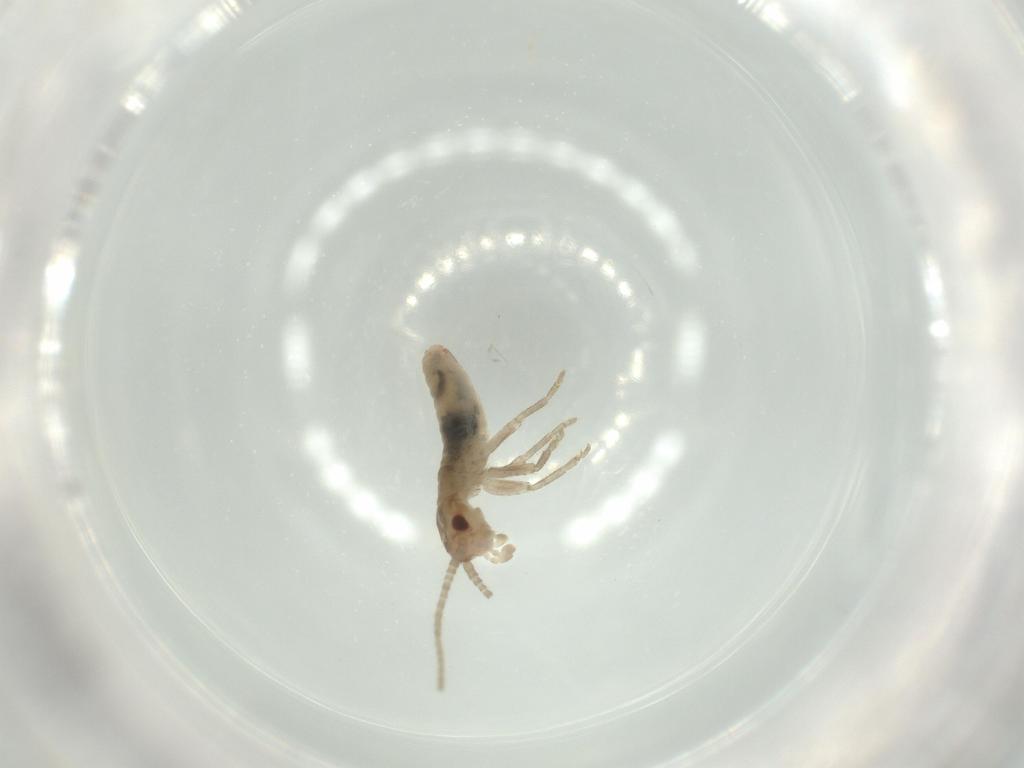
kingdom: Animalia
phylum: Arthropoda
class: Insecta
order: Orthoptera
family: Mogoplistidae
